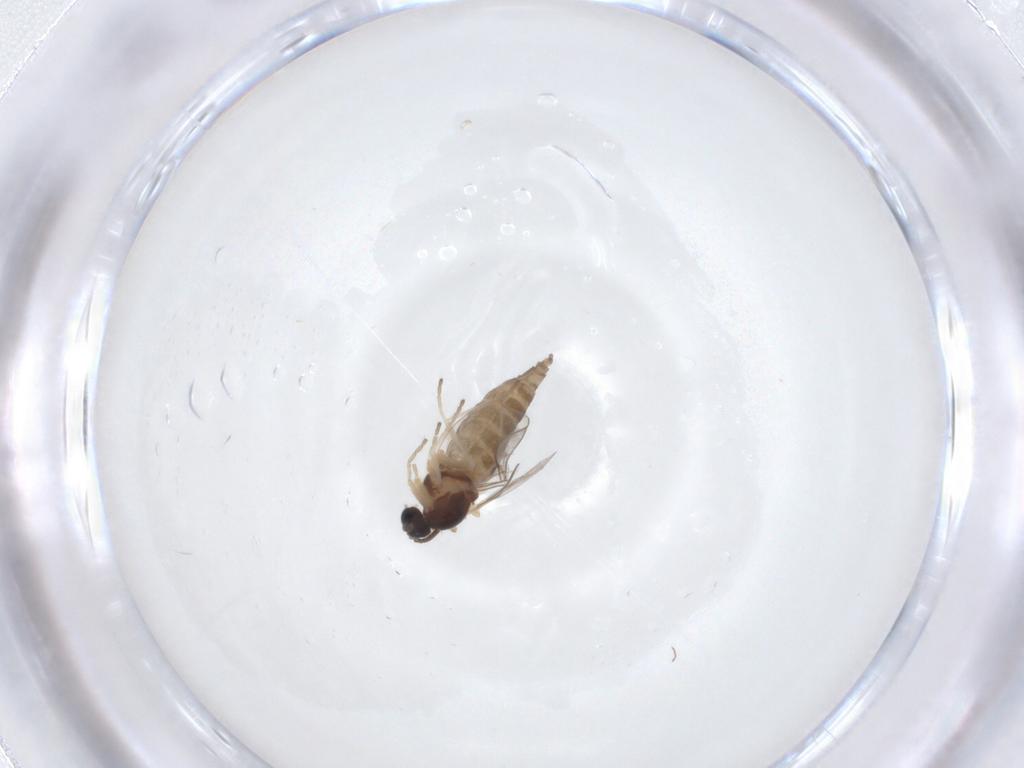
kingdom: Animalia
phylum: Arthropoda
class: Insecta
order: Diptera
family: Cecidomyiidae
